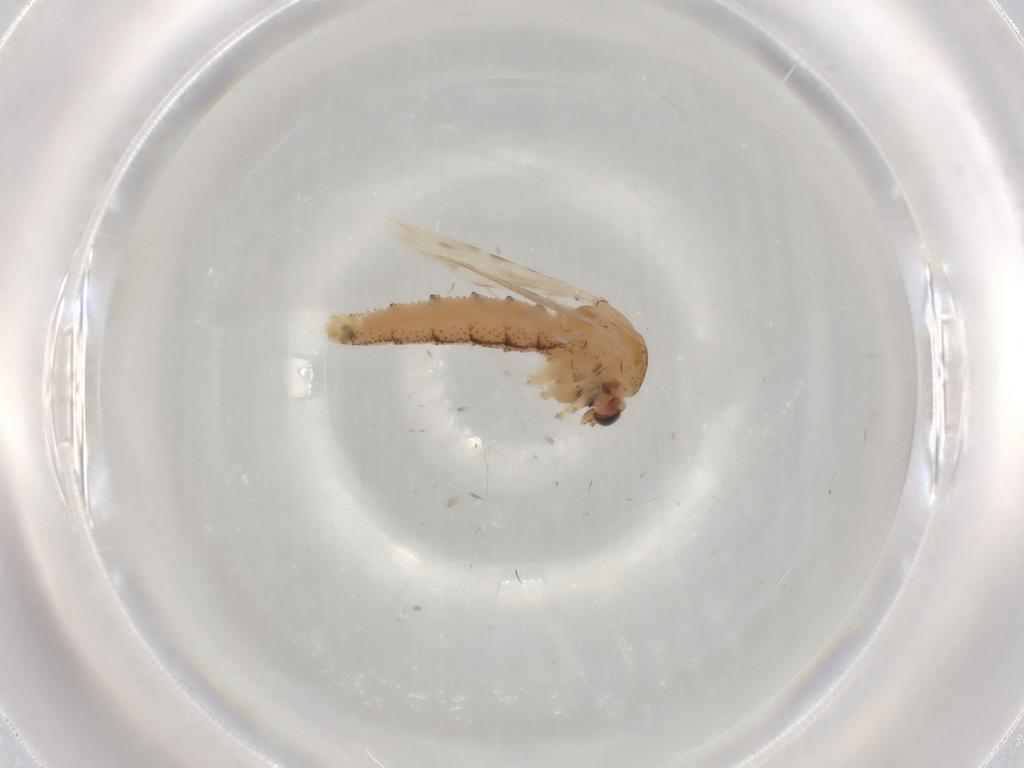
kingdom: Animalia
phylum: Arthropoda
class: Insecta
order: Diptera
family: Chaoboridae
